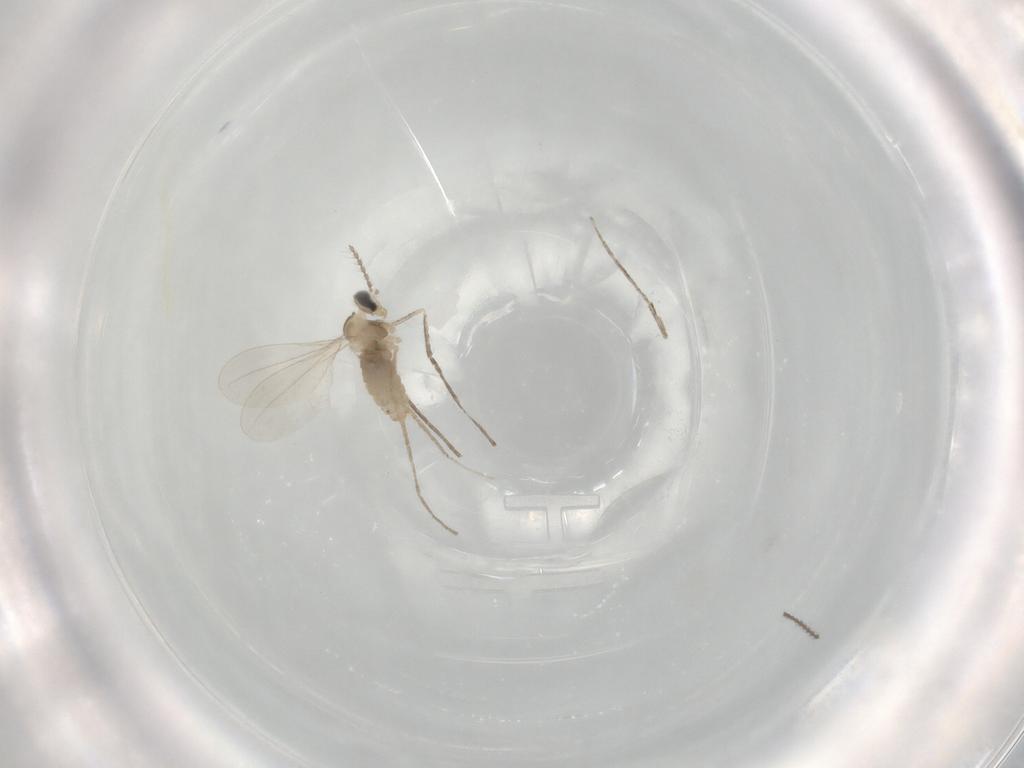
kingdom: Animalia
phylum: Arthropoda
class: Insecta
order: Diptera
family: Cecidomyiidae
